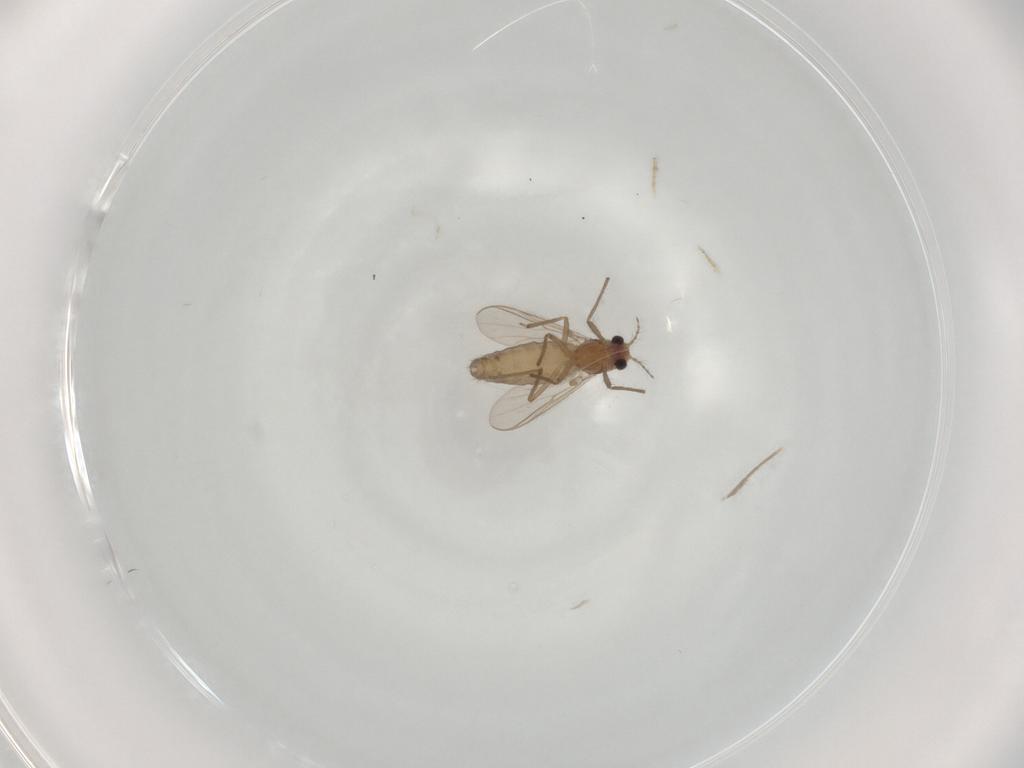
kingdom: Animalia
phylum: Arthropoda
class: Insecta
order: Diptera
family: Chironomidae
